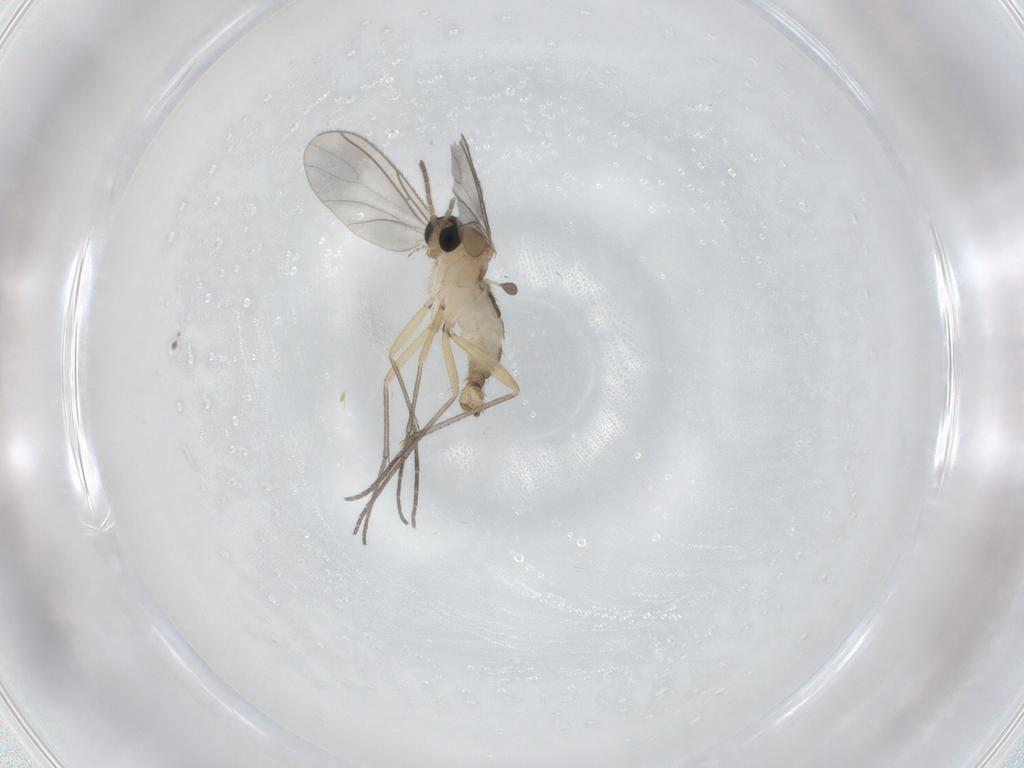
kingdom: Animalia
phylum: Arthropoda
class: Insecta
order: Diptera
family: Sciaridae
